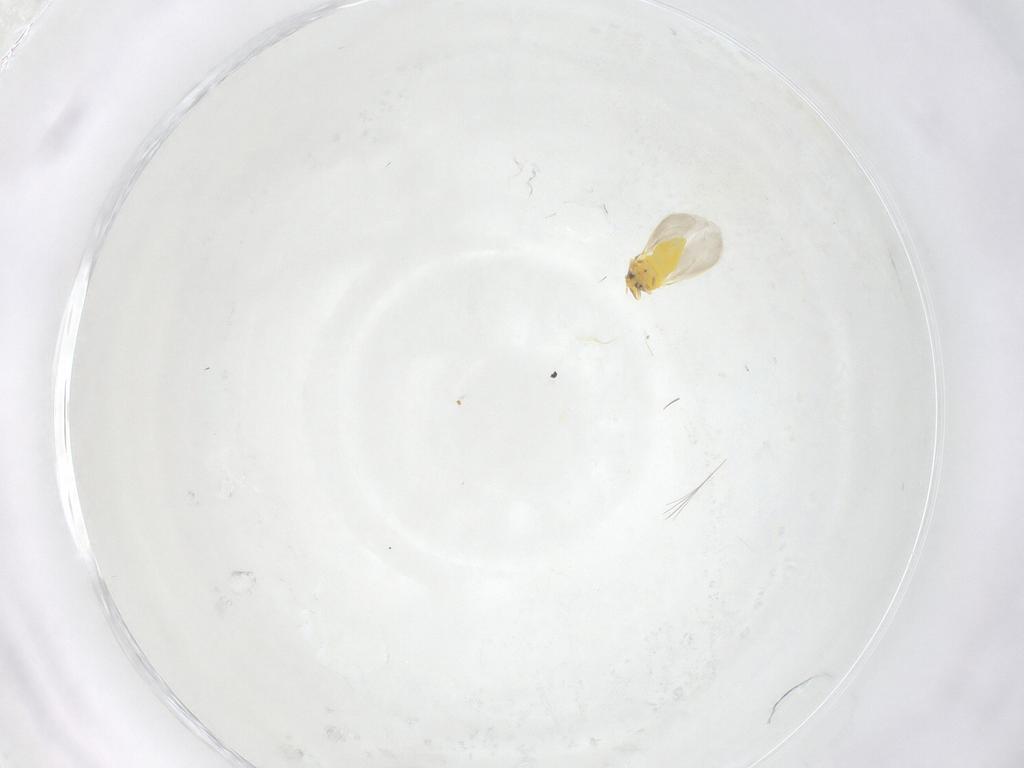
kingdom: Animalia
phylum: Arthropoda
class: Insecta
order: Hemiptera
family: Aleyrodidae
